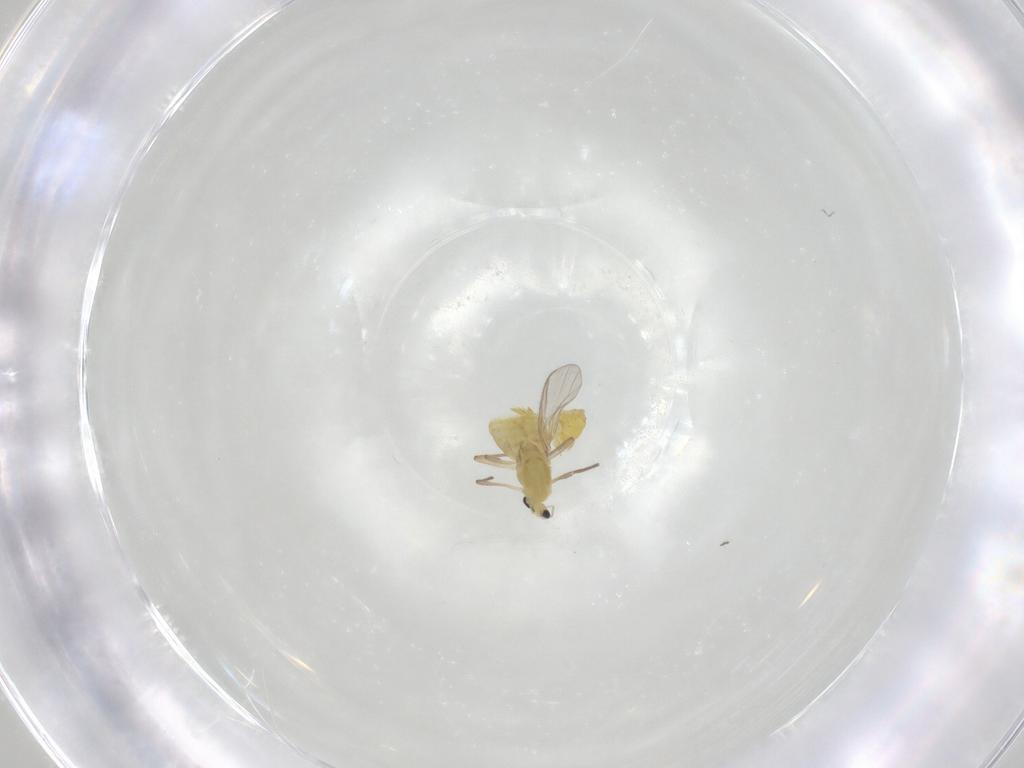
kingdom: Animalia
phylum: Arthropoda
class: Insecta
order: Diptera
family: Chironomidae
